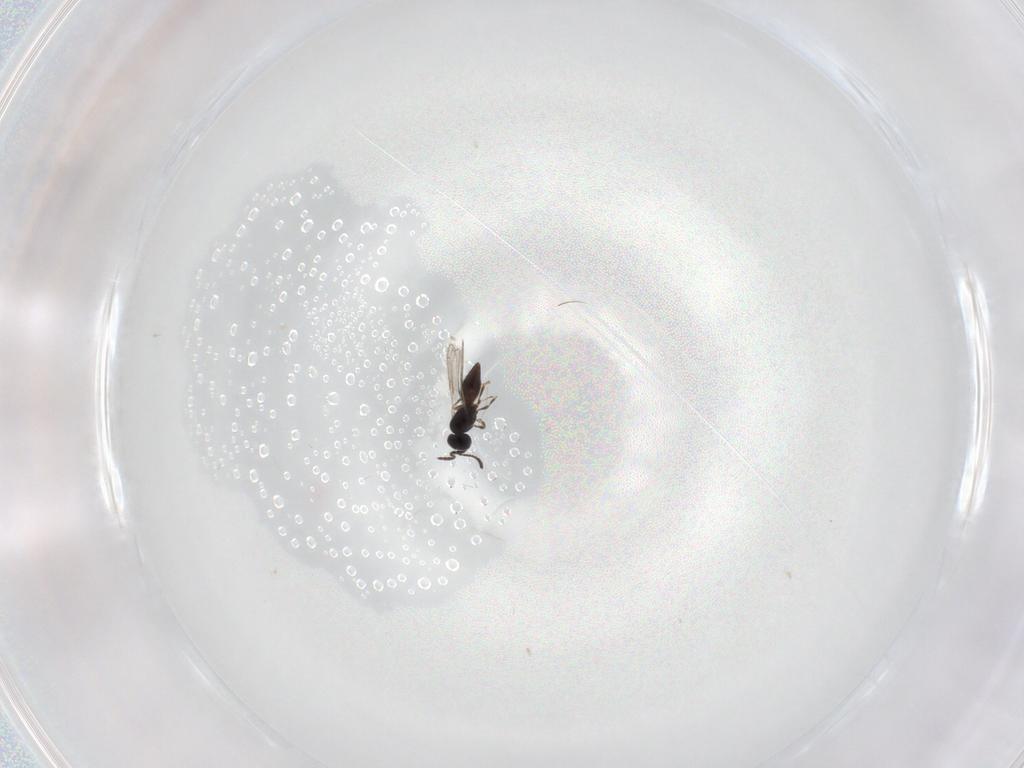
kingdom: Animalia
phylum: Arthropoda
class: Insecta
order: Hymenoptera
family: Scelionidae
